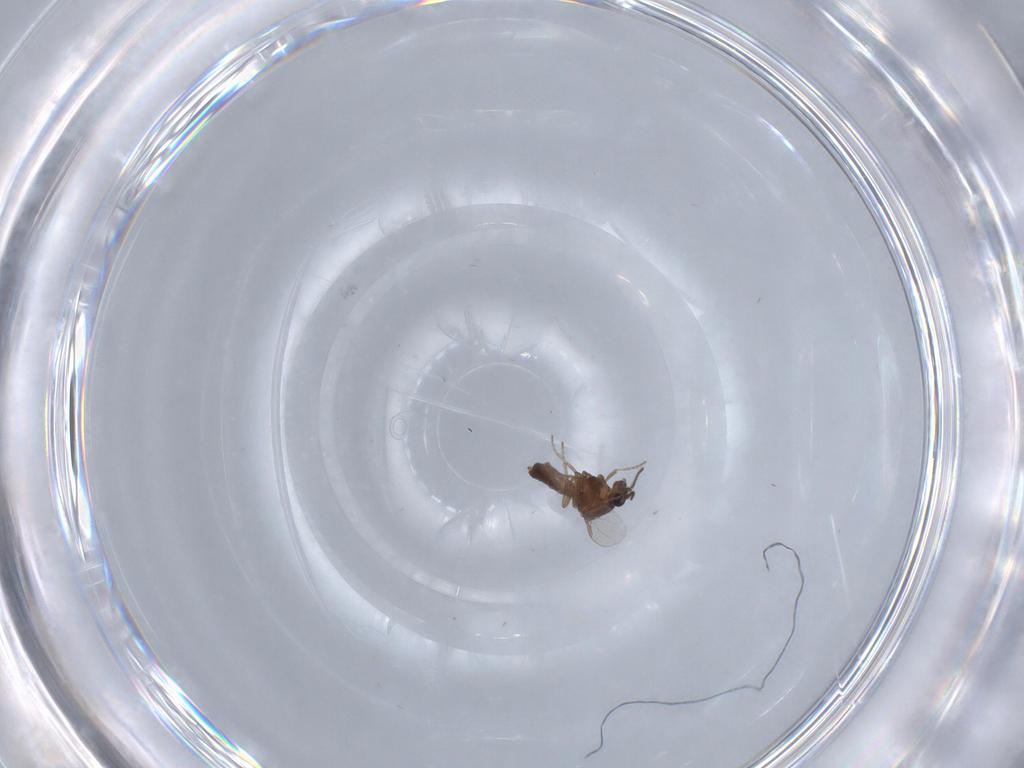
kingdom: Animalia
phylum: Arthropoda
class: Insecta
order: Diptera
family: Ceratopogonidae
